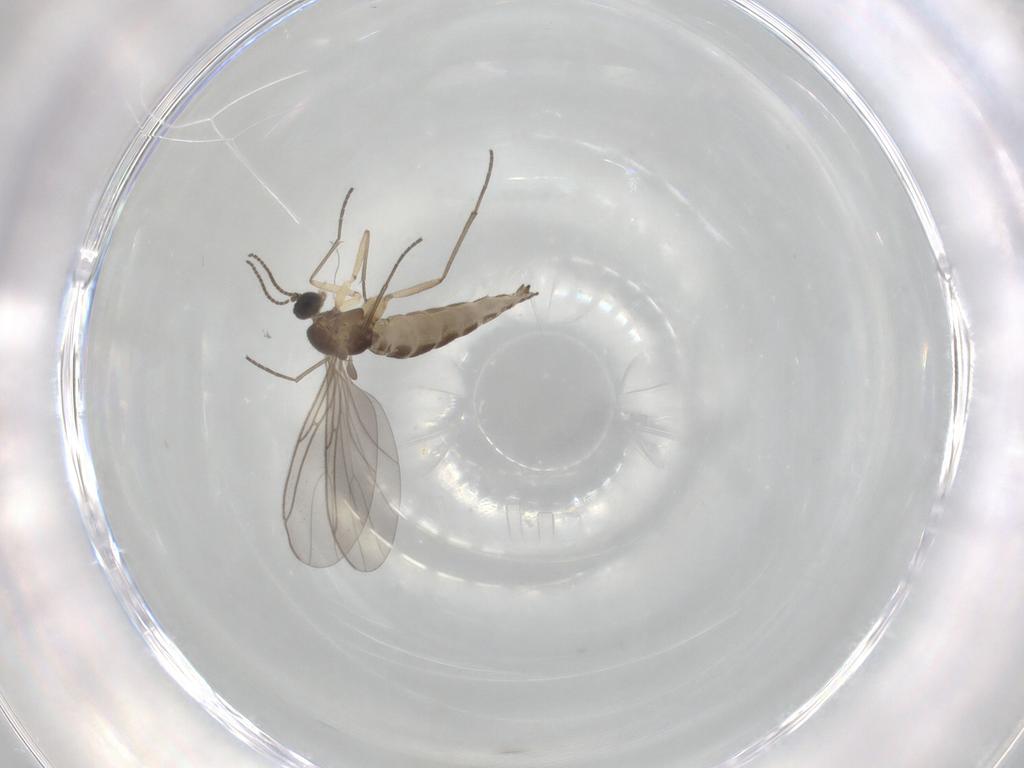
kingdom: Animalia
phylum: Arthropoda
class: Insecta
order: Diptera
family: Sciaridae
